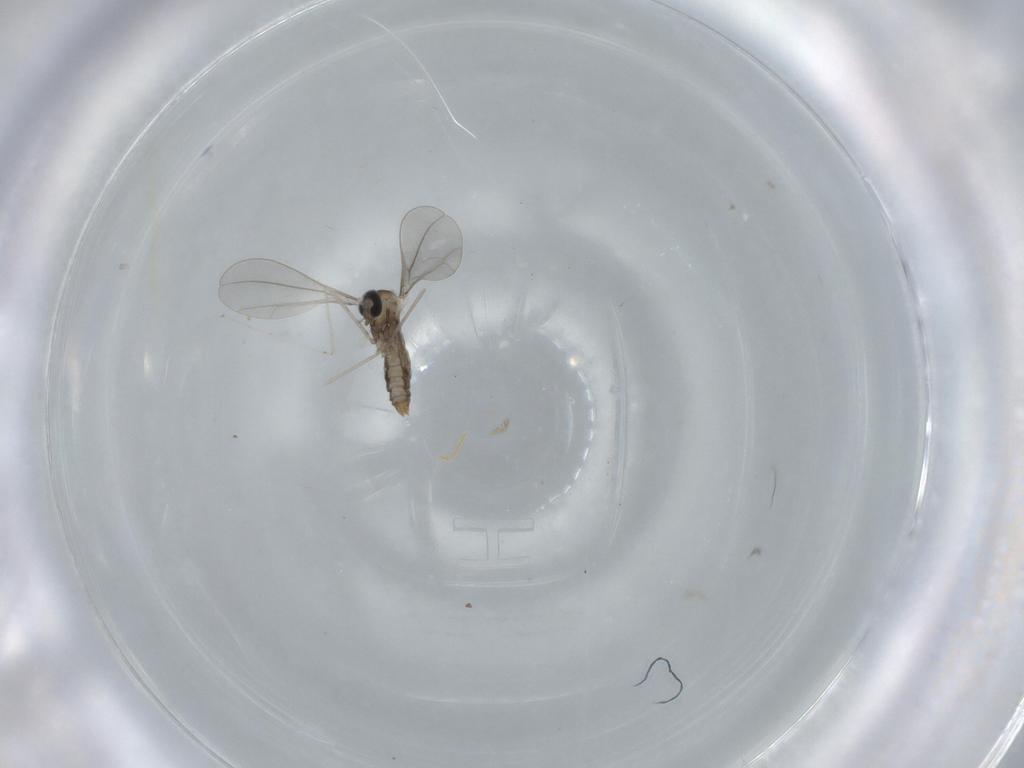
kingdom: Animalia
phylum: Arthropoda
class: Insecta
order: Diptera
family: Cecidomyiidae
